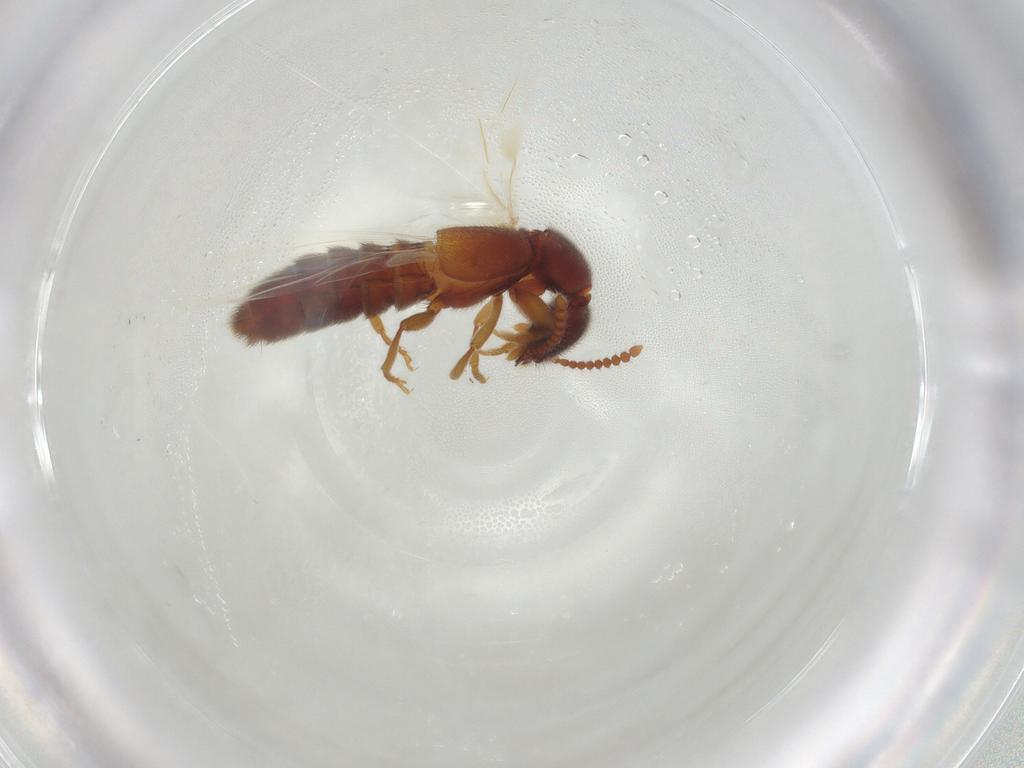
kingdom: Animalia
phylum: Arthropoda
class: Insecta
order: Coleoptera
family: Staphylinidae
